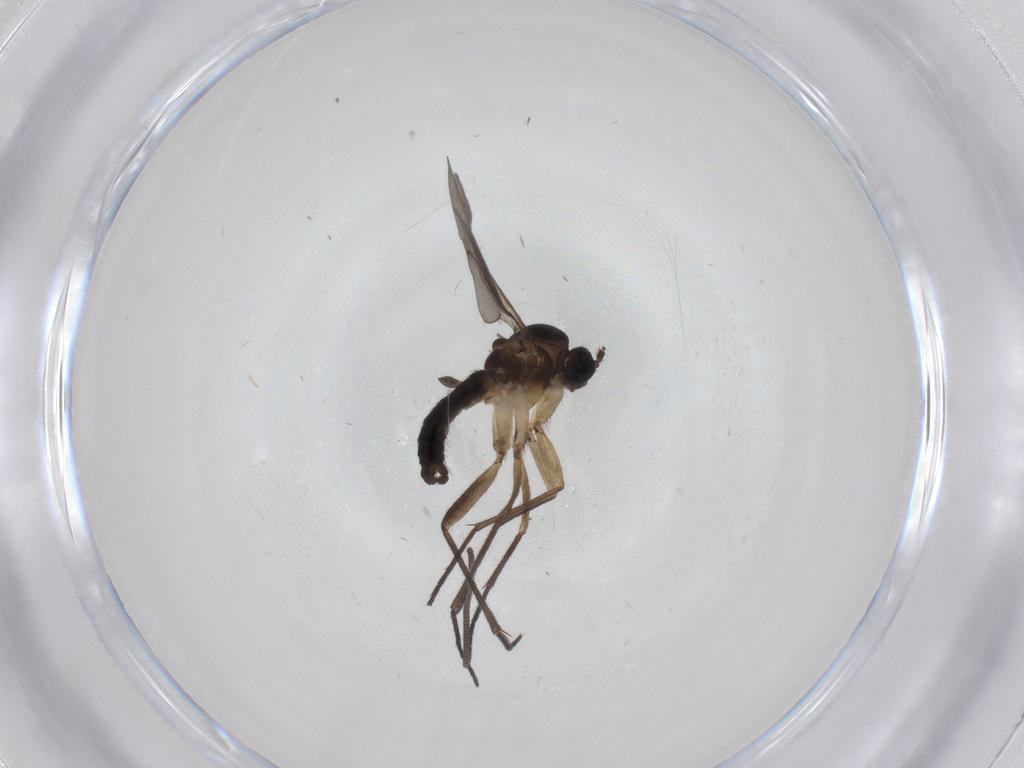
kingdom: Animalia
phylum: Arthropoda
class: Insecta
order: Diptera
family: Sciaridae
